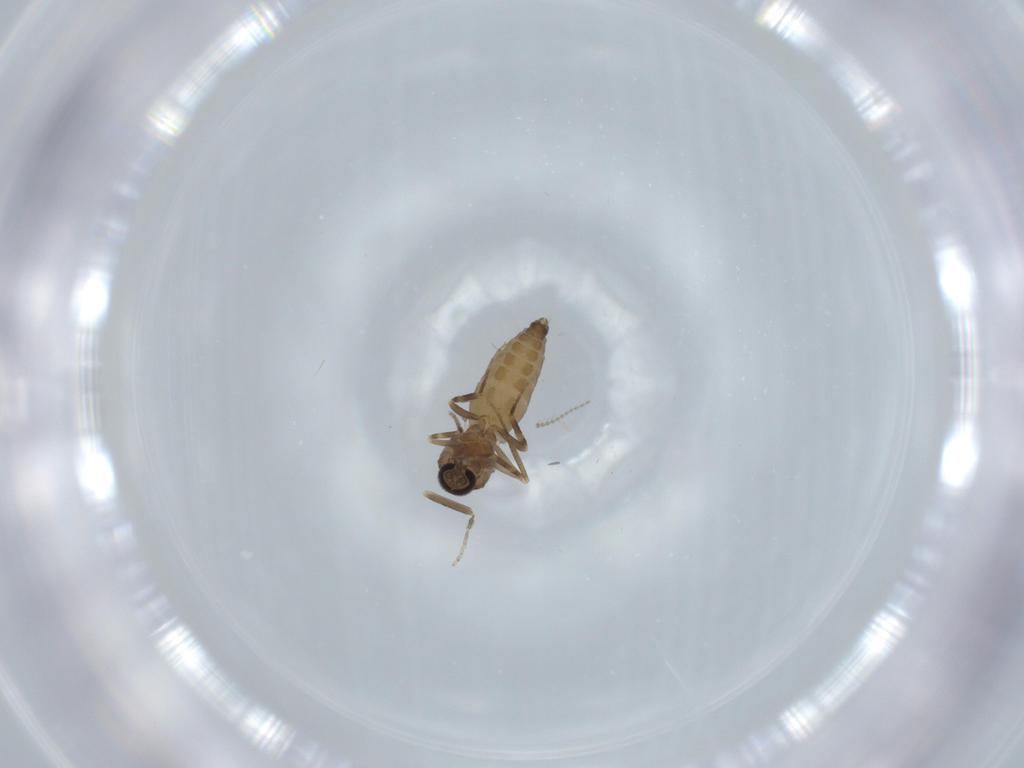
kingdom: Animalia
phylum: Arthropoda
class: Insecta
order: Diptera
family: Ceratopogonidae
